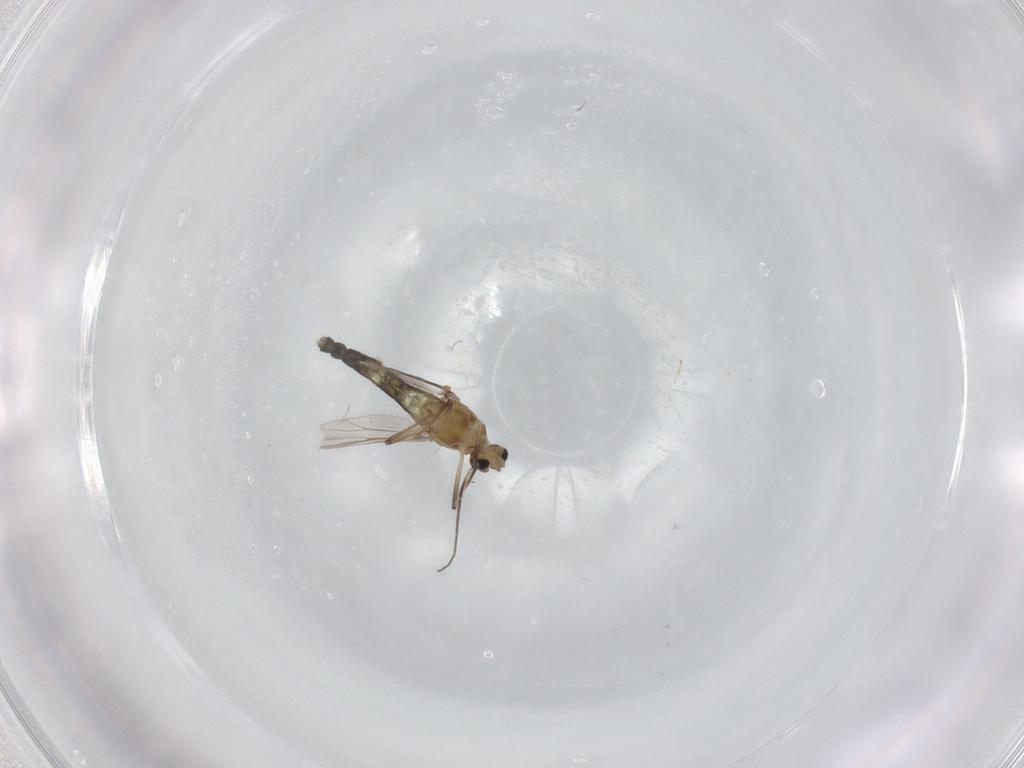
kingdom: Animalia
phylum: Arthropoda
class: Insecta
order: Diptera
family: Chironomidae
